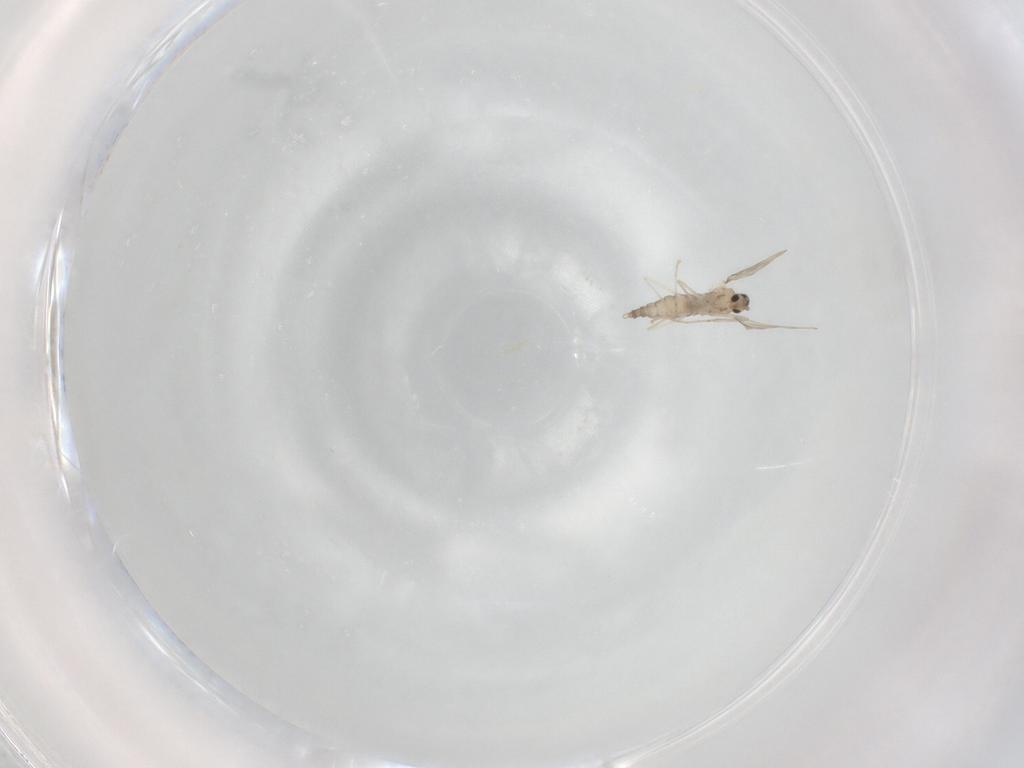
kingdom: Animalia
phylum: Arthropoda
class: Insecta
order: Diptera
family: Cecidomyiidae
